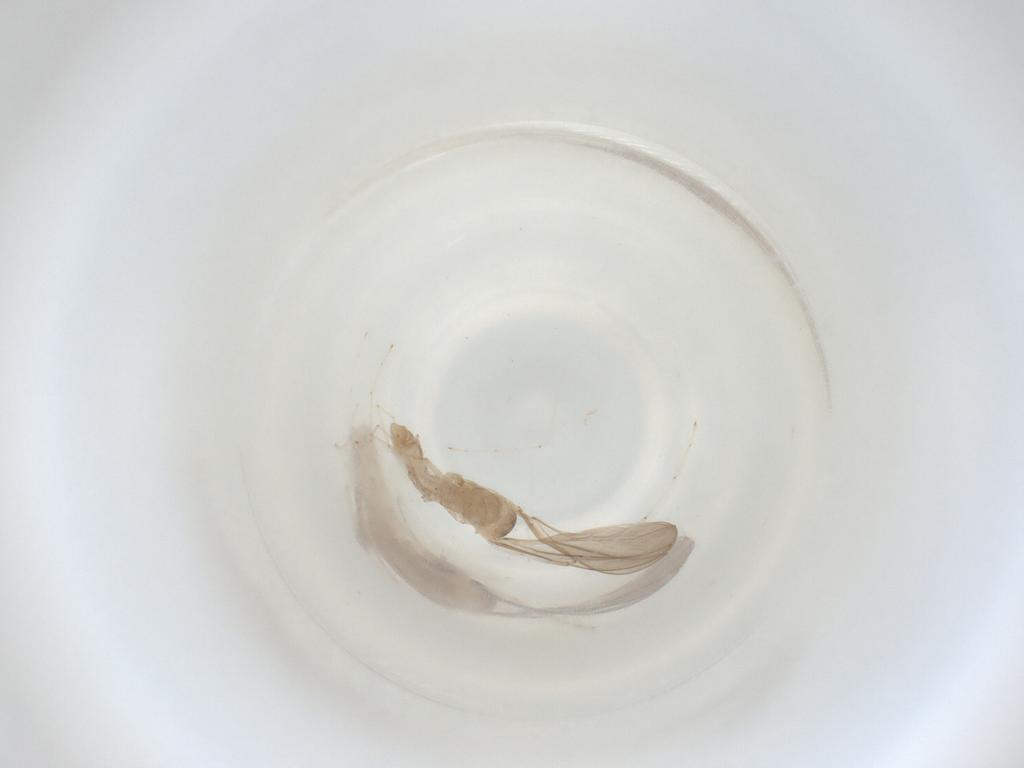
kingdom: Animalia
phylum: Arthropoda
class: Insecta
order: Diptera
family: Cecidomyiidae
